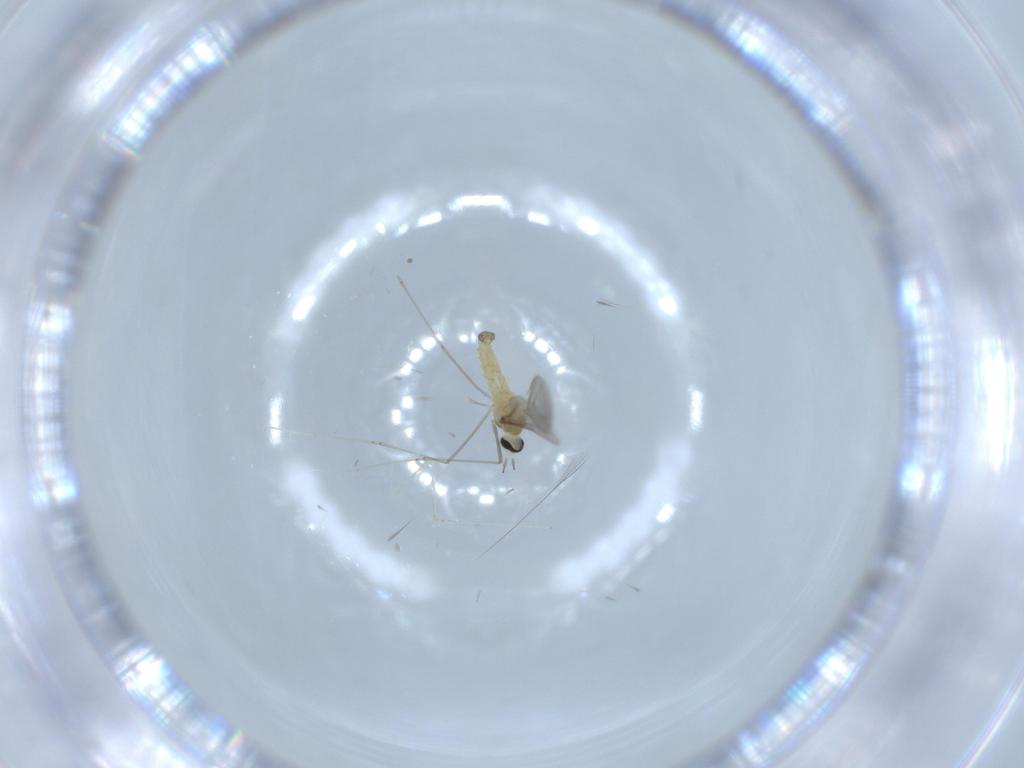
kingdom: Animalia
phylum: Arthropoda
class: Insecta
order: Diptera
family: Cecidomyiidae
